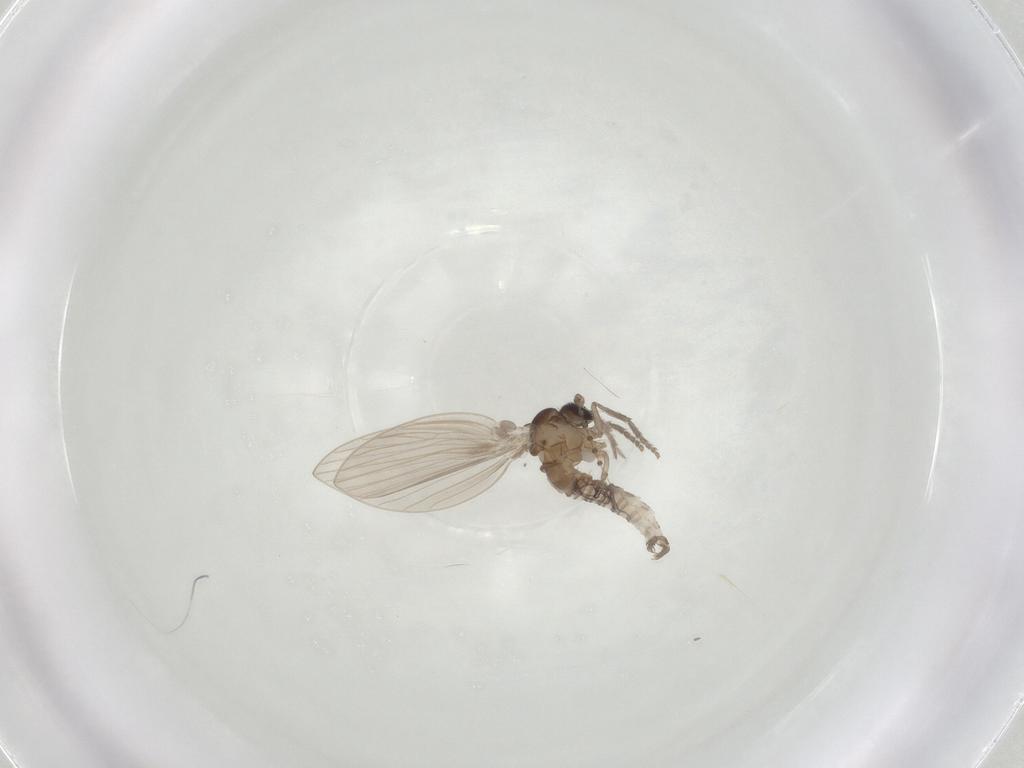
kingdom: Animalia
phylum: Arthropoda
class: Insecta
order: Diptera
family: Psychodidae
